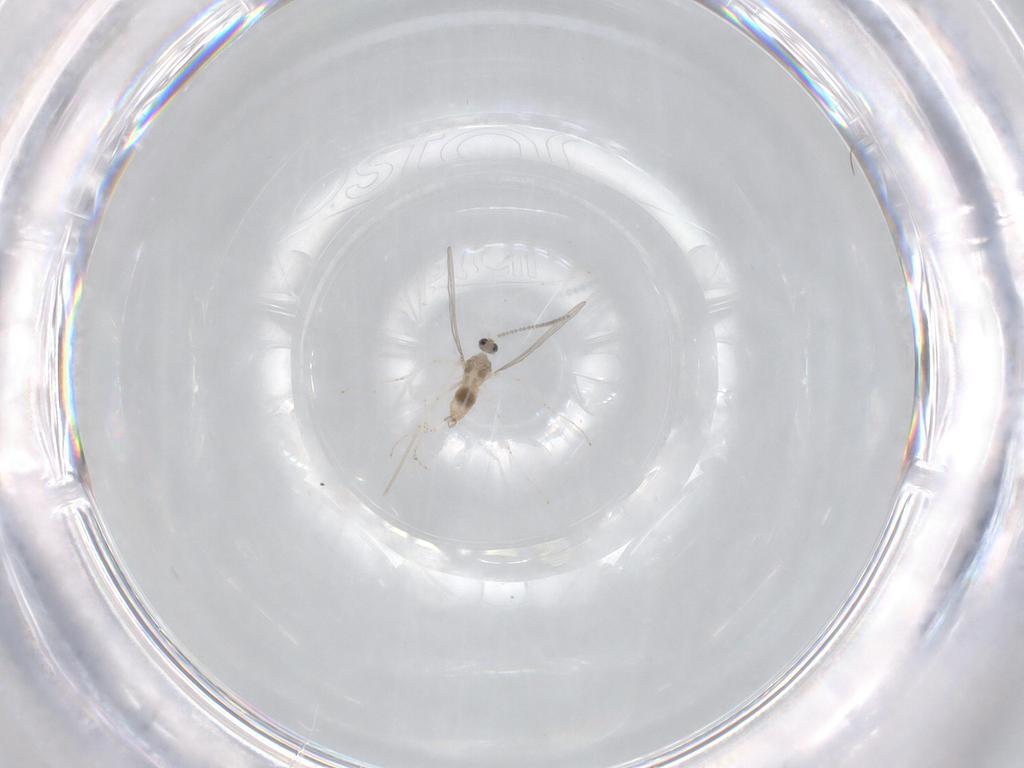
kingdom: Animalia
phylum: Arthropoda
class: Insecta
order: Diptera
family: Cecidomyiidae
